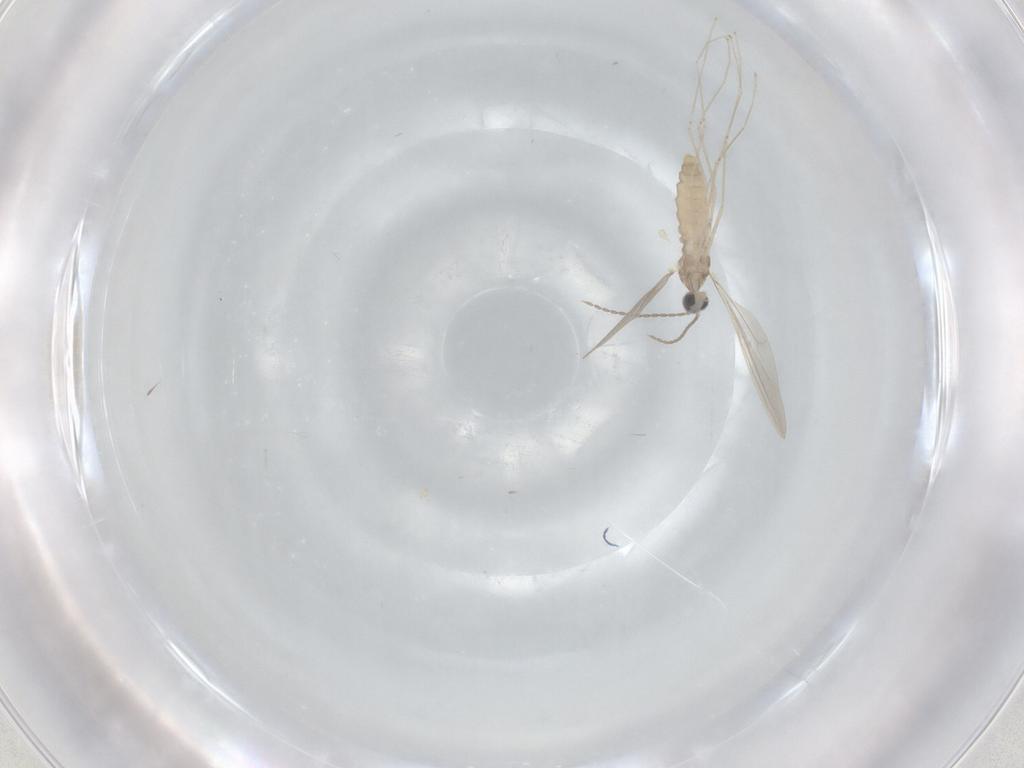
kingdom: Animalia
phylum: Arthropoda
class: Insecta
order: Diptera
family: Cecidomyiidae
